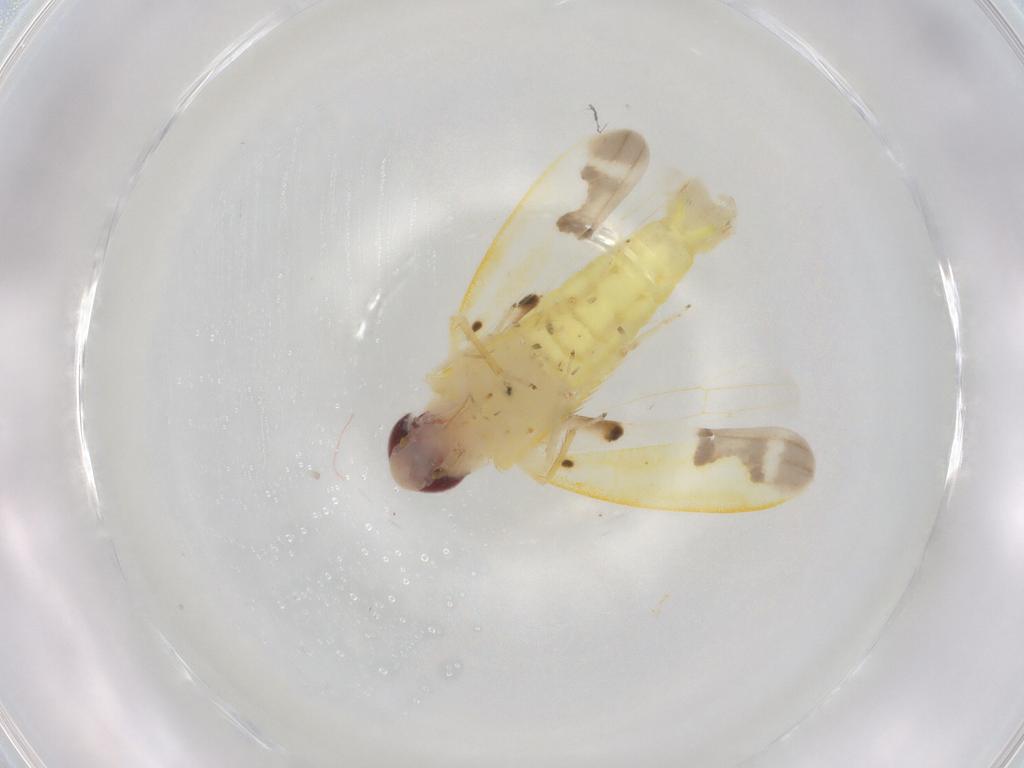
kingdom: Animalia
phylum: Arthropoda
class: Insecta
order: Hemiptera
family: Cicadellidae
